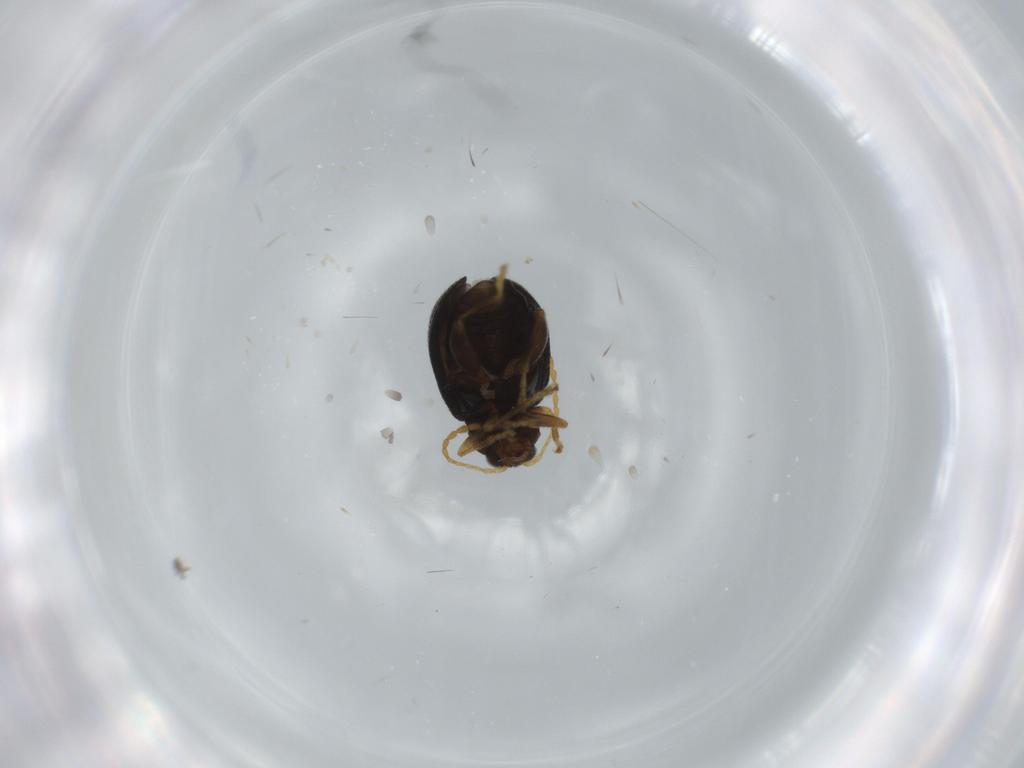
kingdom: Animalia
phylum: Arthropoda
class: Insecta
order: Coleoptera
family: Chrysomelidae
